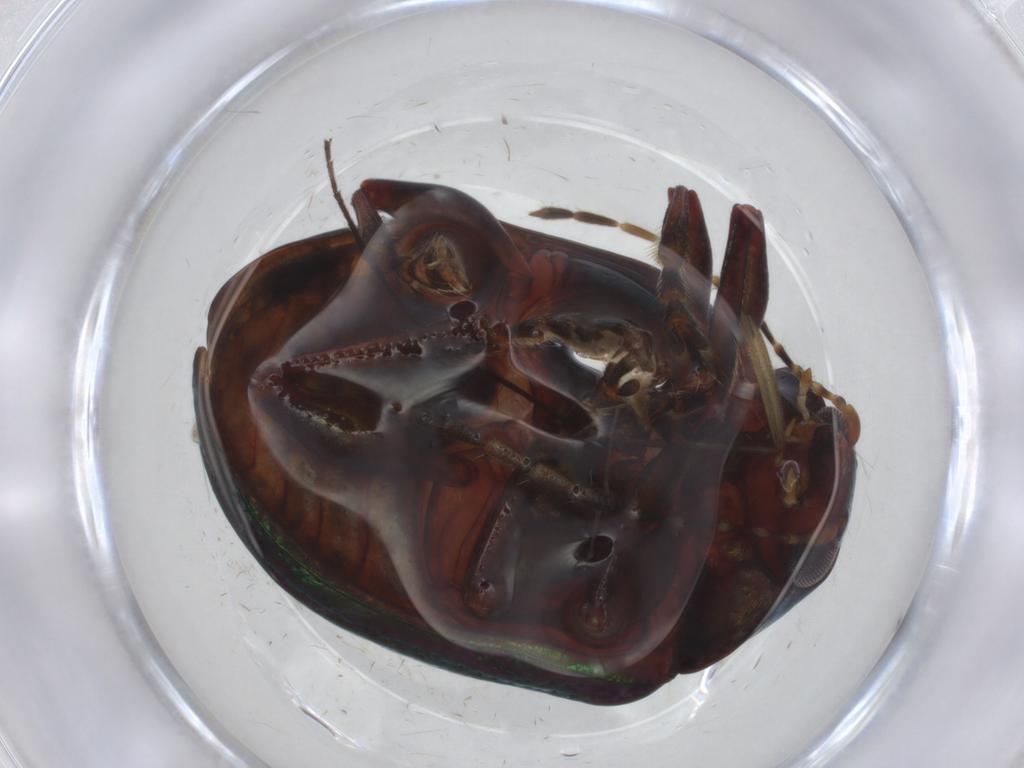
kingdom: Animalia
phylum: Arthropoda
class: Insecta
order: Coleoptera
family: Chrysomelidae
